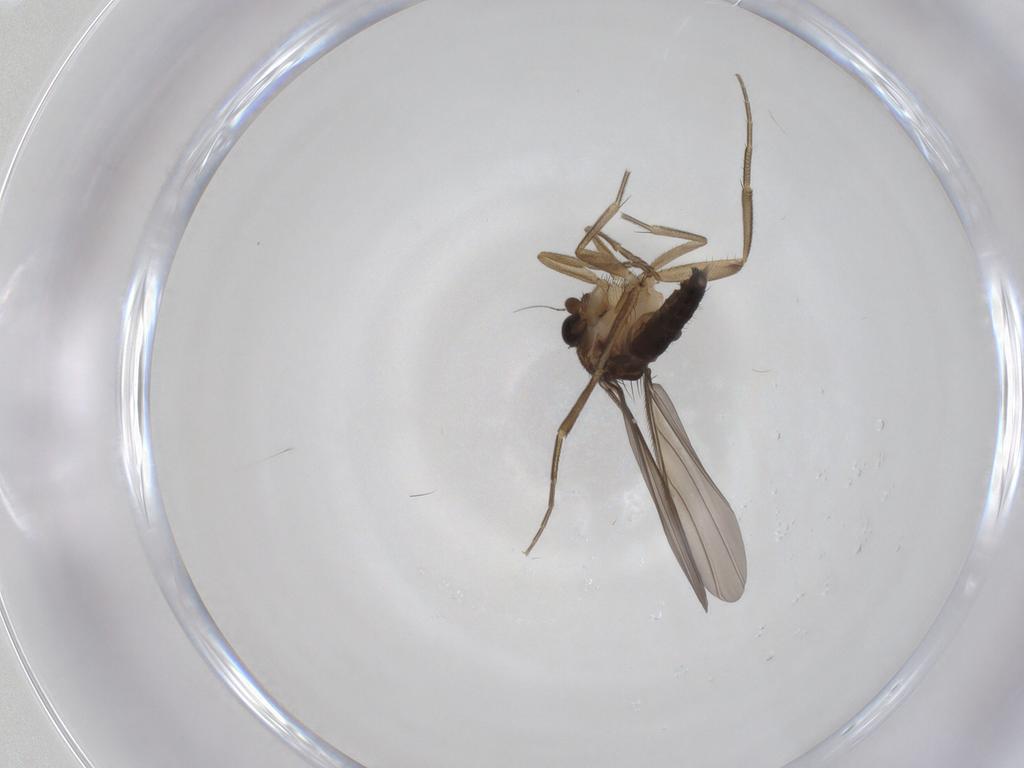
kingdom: Animalia
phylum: Arthropoda
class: Insecta
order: Diptera
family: Phoridae
